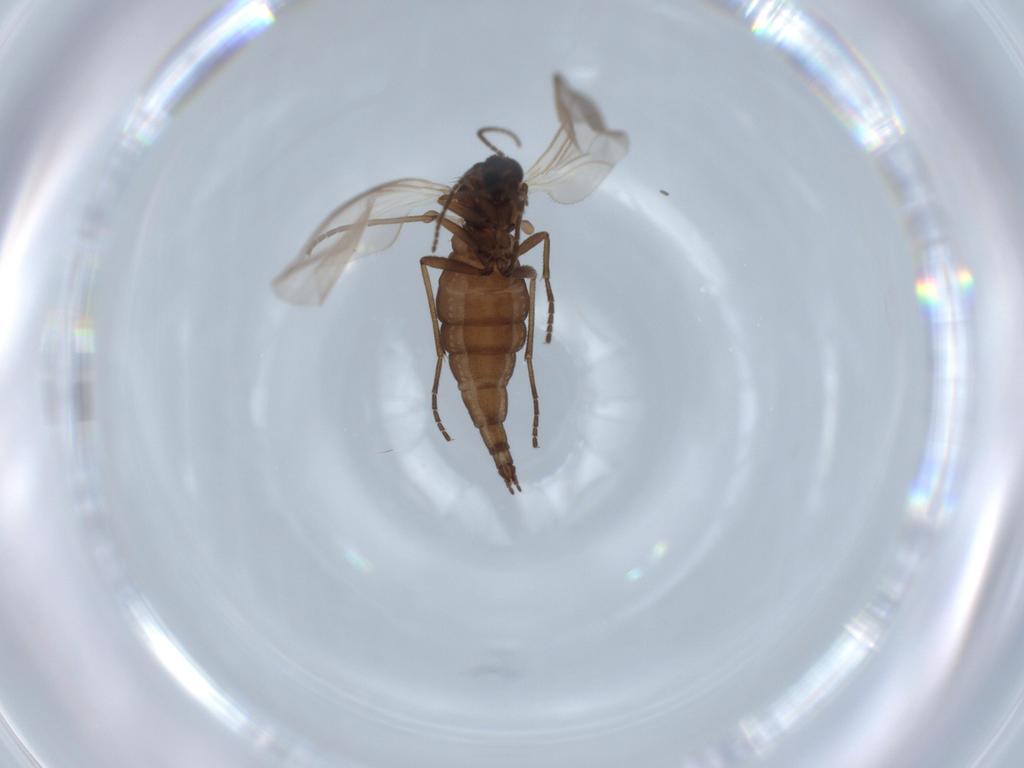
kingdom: Animalia
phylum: Arthropoda
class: Insecta
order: Diptera
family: Sciaridae
